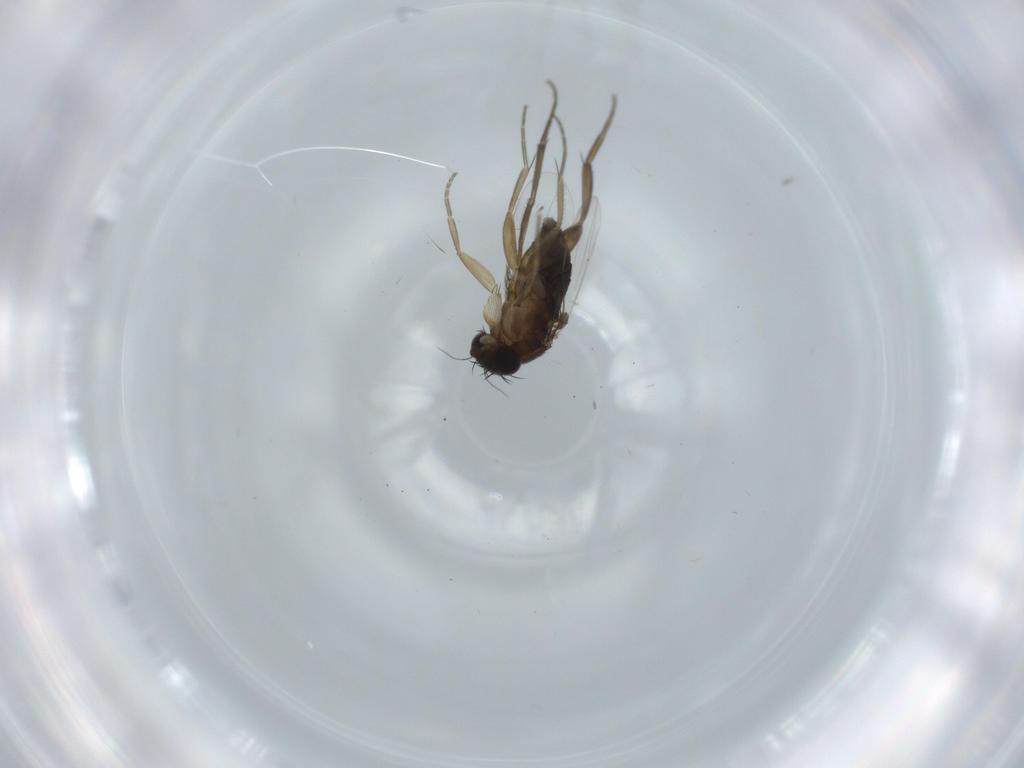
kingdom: Animalia
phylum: Arthropoda
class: Insecta
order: Diptera
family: Phoridae
